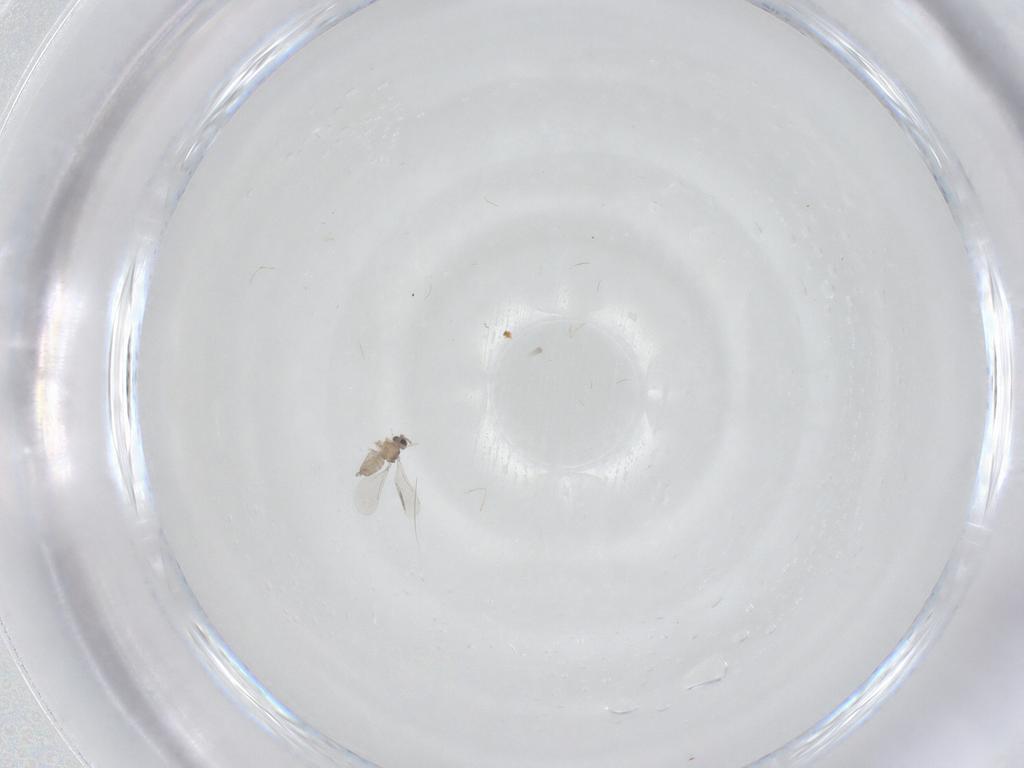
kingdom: Animalia
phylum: Arthropoda
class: Insecta
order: Diptera
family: Cecidomyiidae
